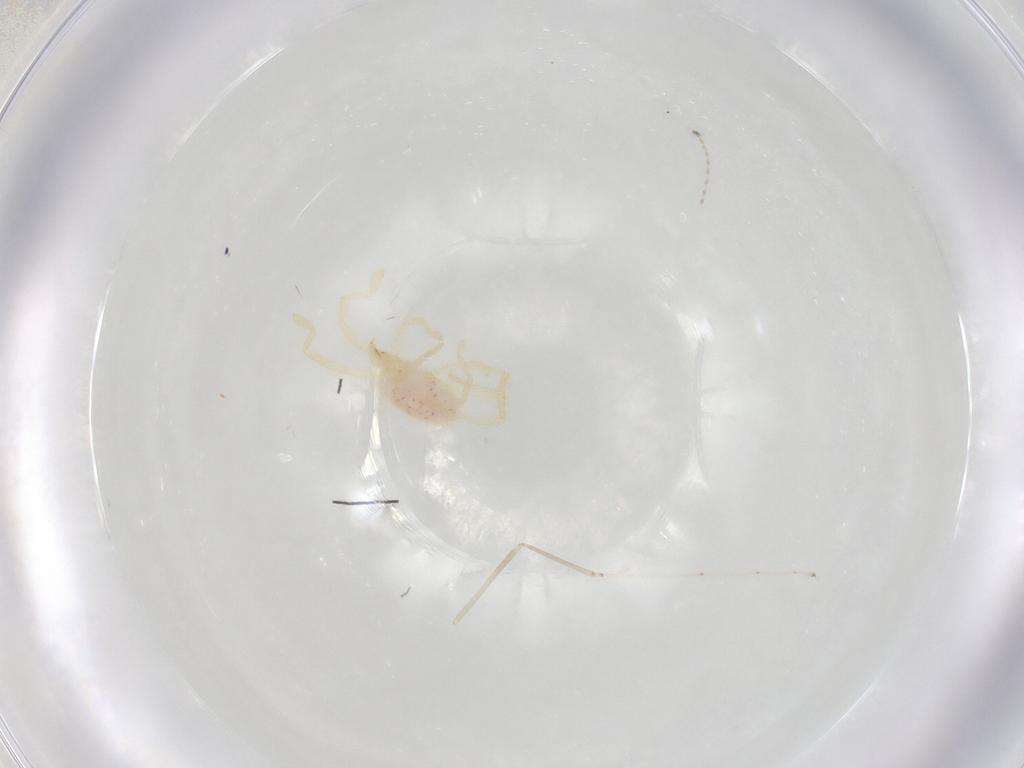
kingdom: Animalia
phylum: Arthropoda
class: Arachnida
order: Trombidiformes
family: Erythraeidae
